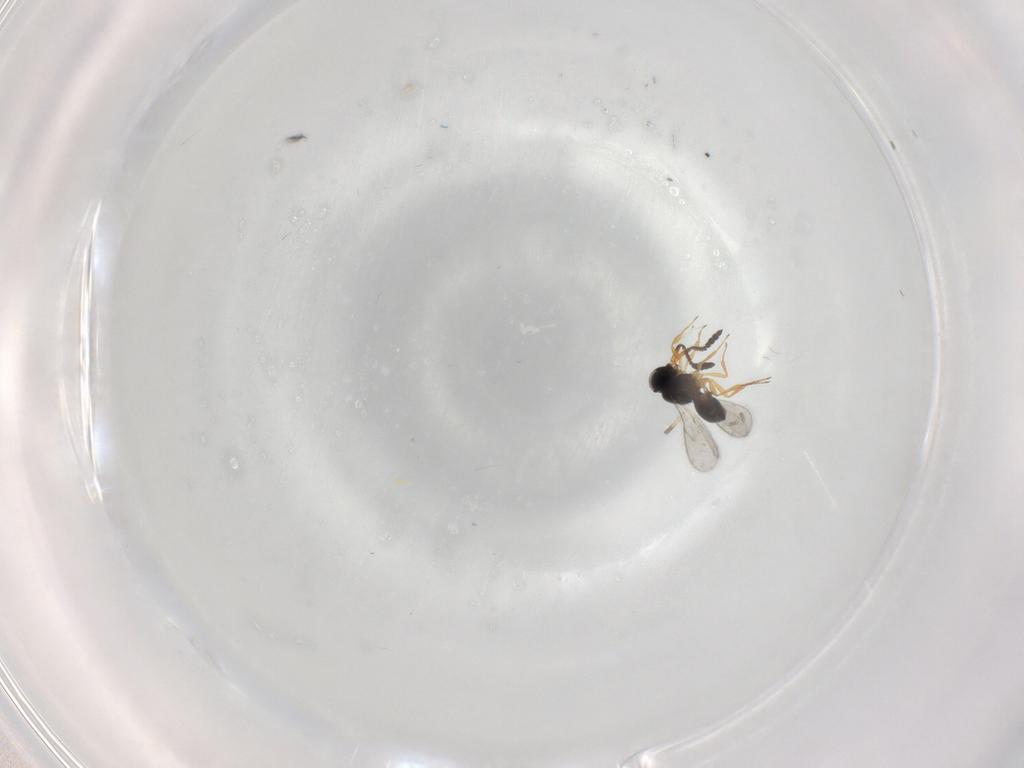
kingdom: Animalia
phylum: Arthropoda
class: Insecta
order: Hymenoptera
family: Scelionidae
